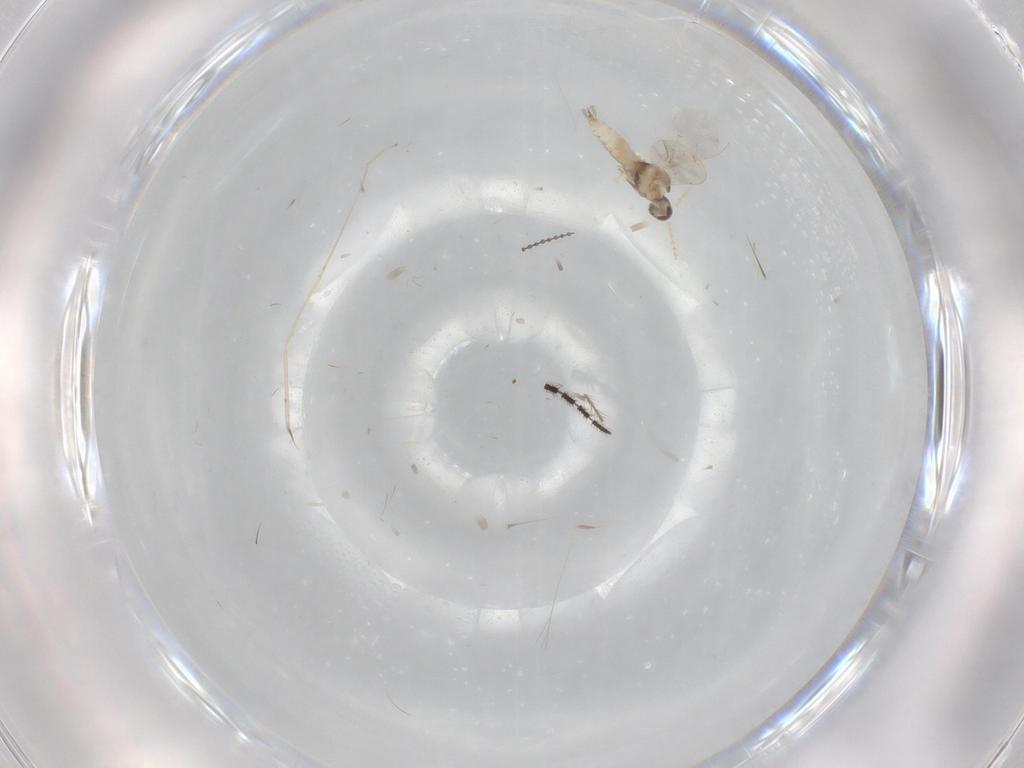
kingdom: Animalia
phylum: Arthropoda
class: Insecta
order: Diptera
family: Cecidomyiidae
